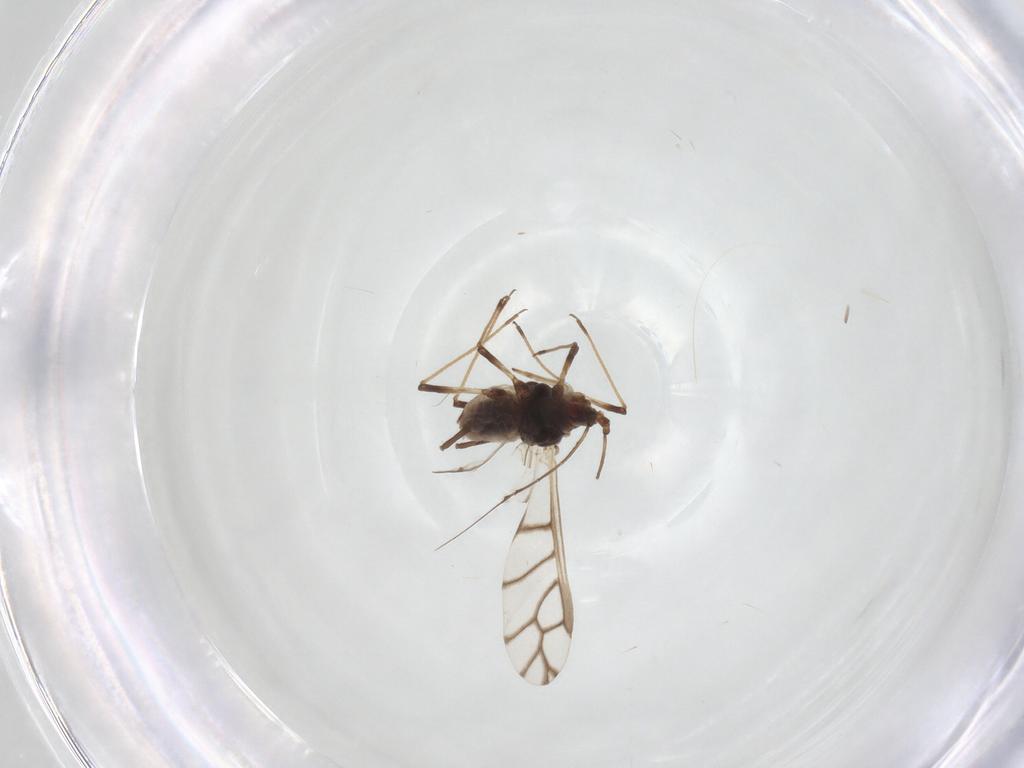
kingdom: Animalia
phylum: Arthropoda
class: Insecta
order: Hemiptera
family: Aphididae
